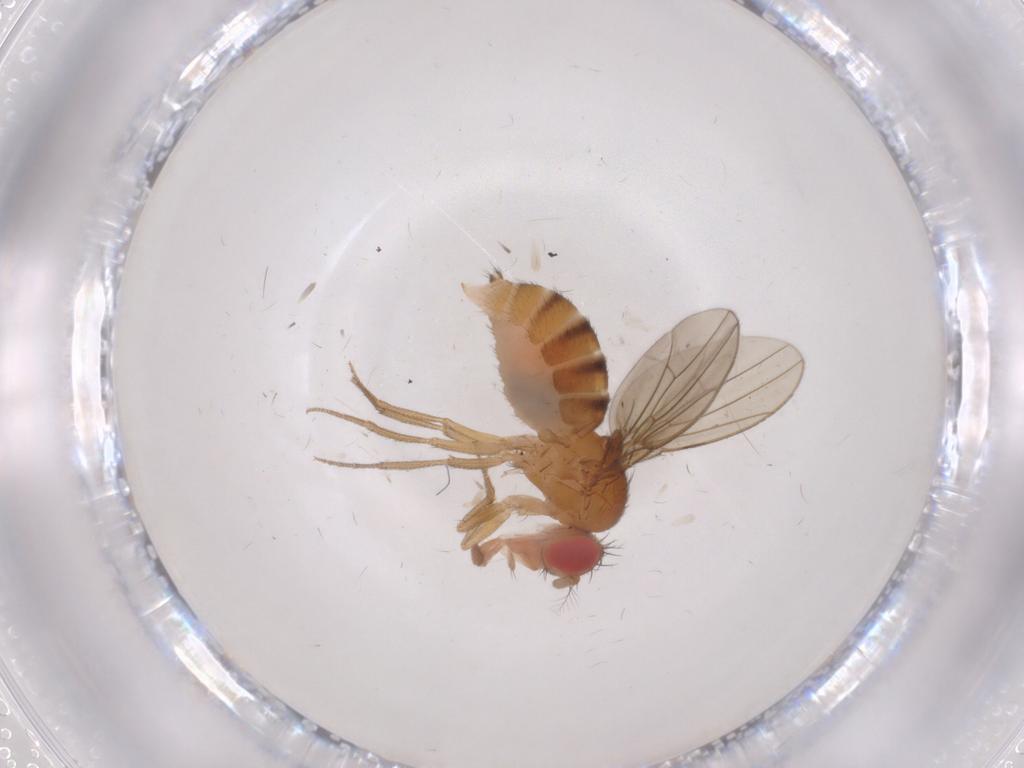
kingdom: Animalia
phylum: Arthropoda
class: Insecta
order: Diptera
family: Drosophilidae
